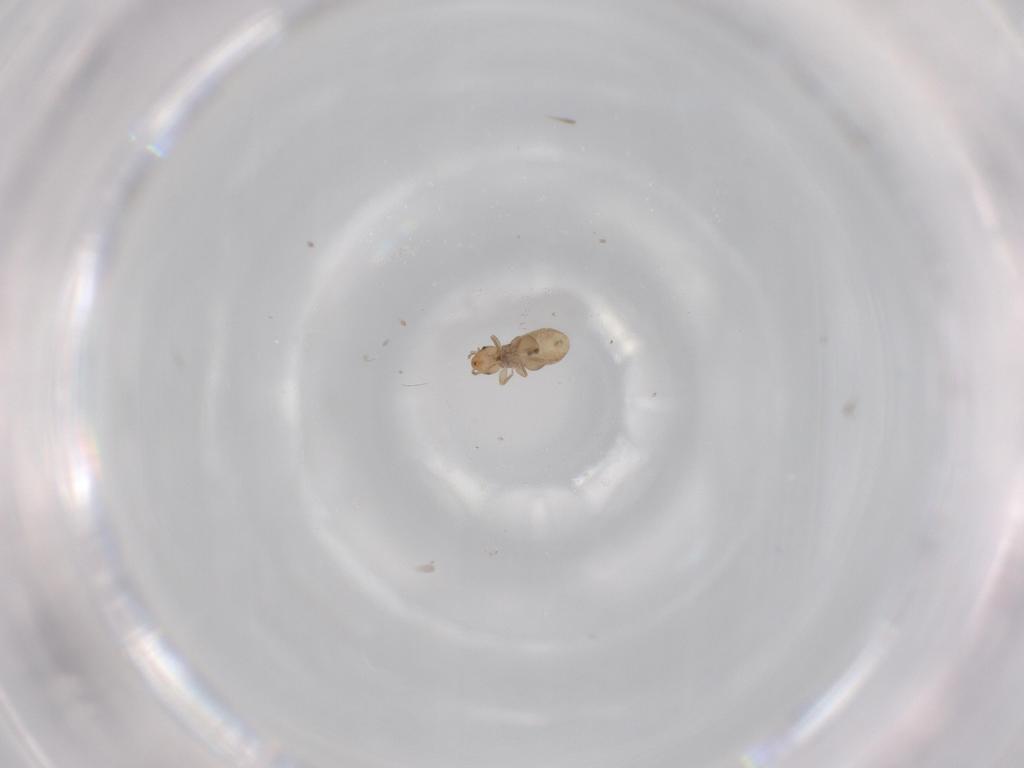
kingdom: Animalia
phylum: Arthropoda
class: Insecta
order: Psocodea
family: Liposcelididae
